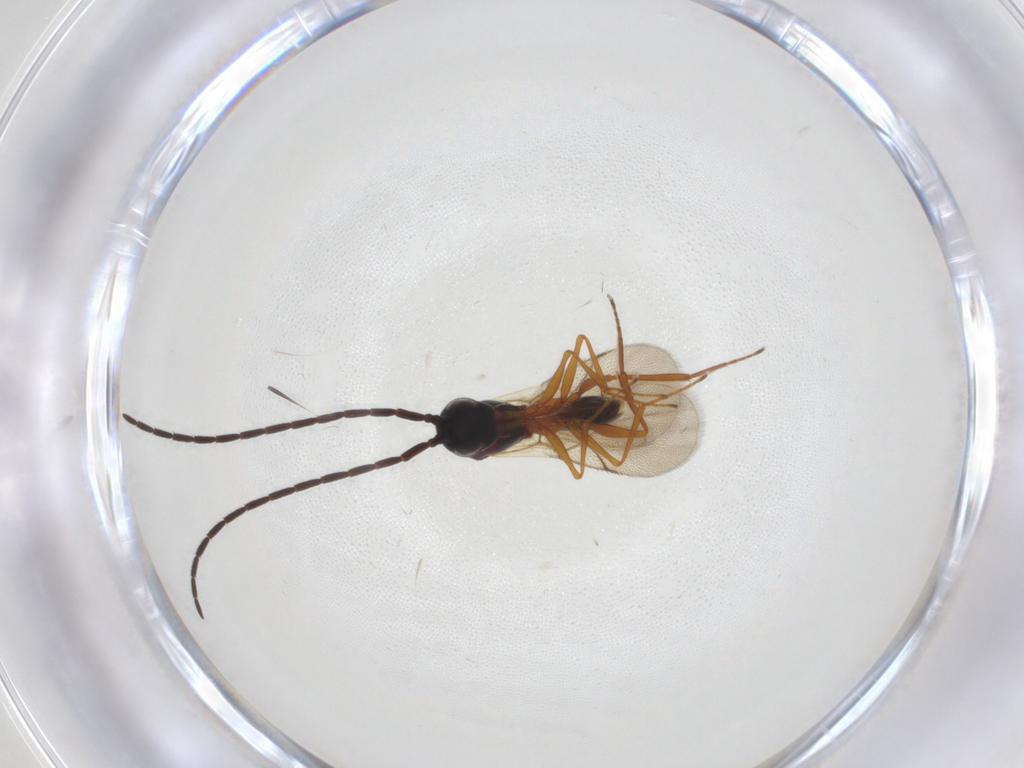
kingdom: Animalia
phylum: Arthropoda
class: Insecta
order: Hymenoptera
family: Figitidae
